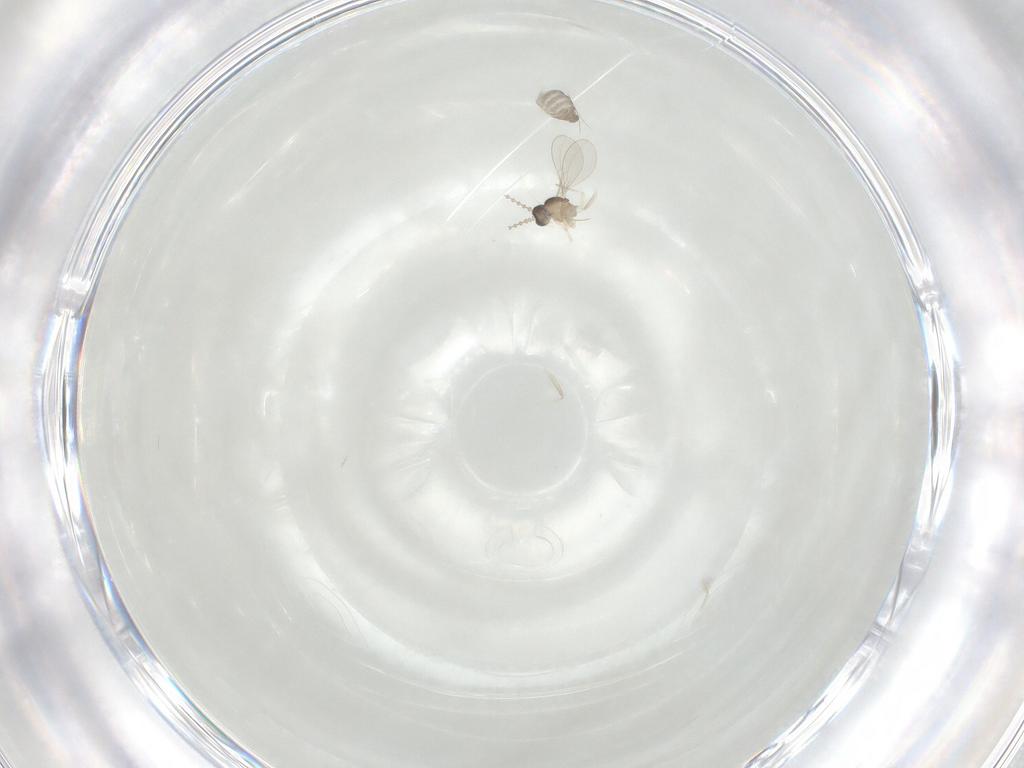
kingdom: Animalia
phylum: Arthropoda
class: Insecta
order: Diptera
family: Cecidomyiidae
